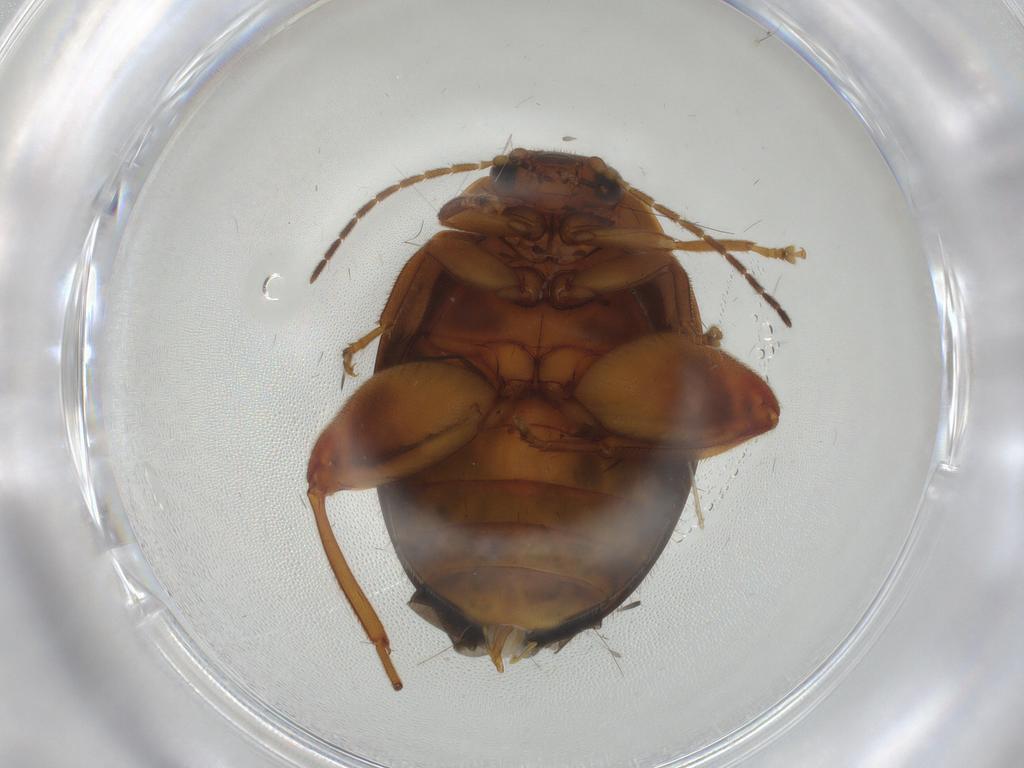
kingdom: Animalia
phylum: Arthropoda
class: Insecta
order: Coleoptera
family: Scirtidae
